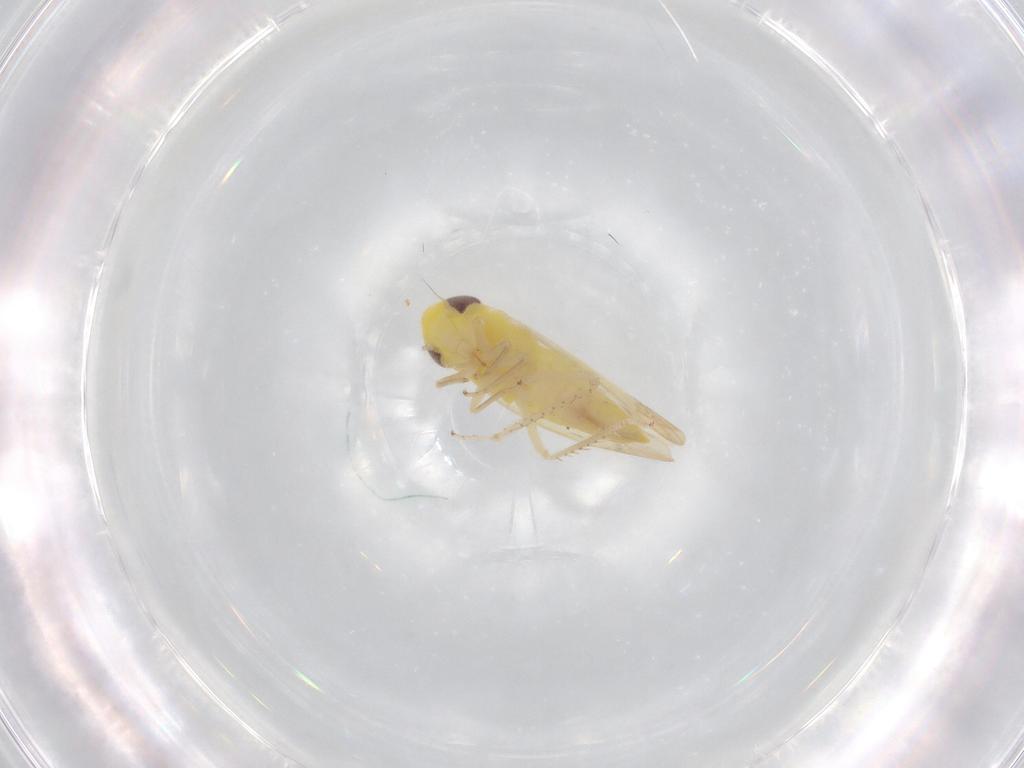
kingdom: Animalia
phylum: Arthropoda
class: Insecta
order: Hemiptera
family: Cicadellidae
